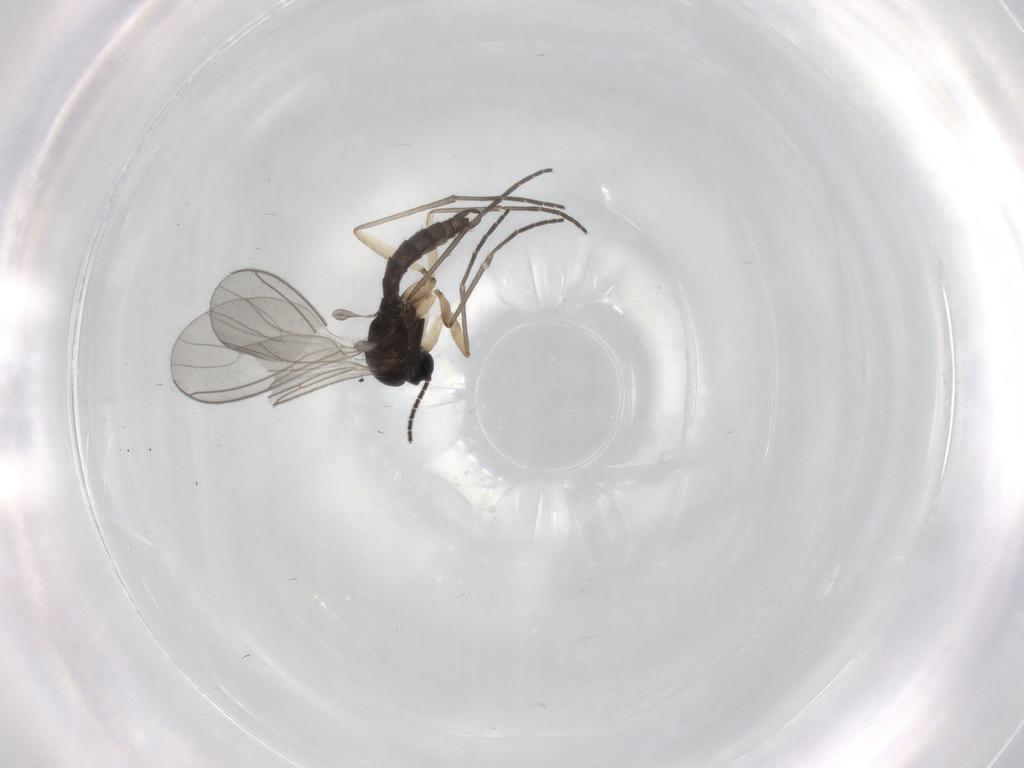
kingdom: Animalia
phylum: Arthropoda
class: Insecta
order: Diptera
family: Sciaridae
